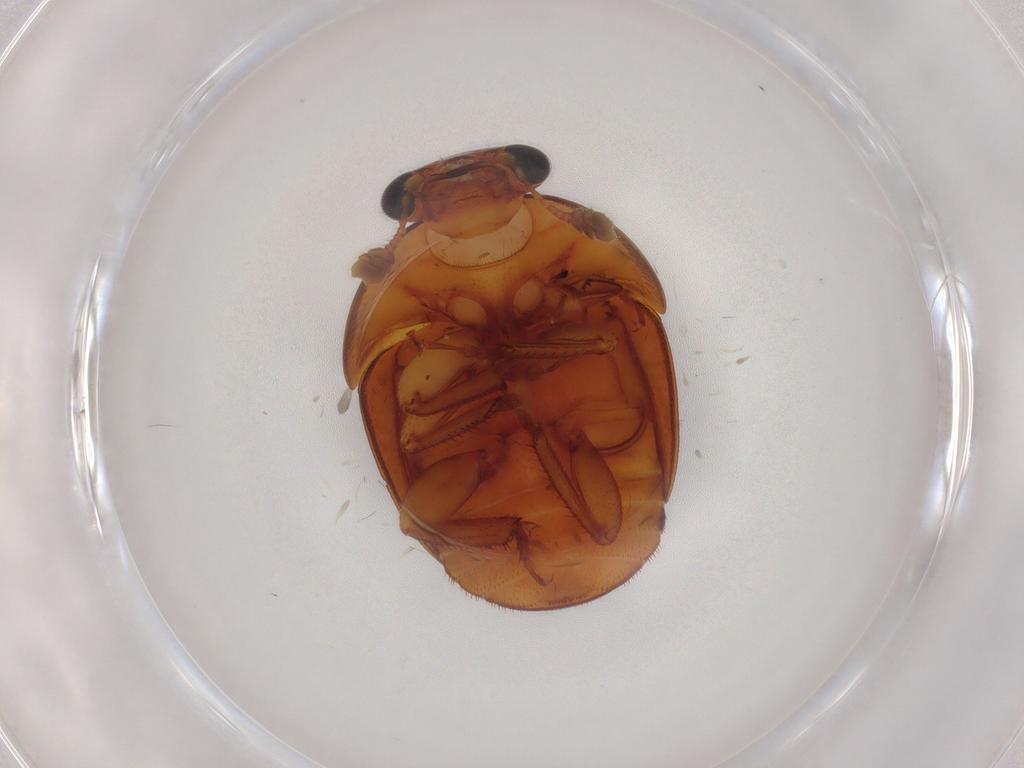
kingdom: Animalia
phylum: Arthropoda
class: Insecta
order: Coleoptera
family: Nitidulidae
